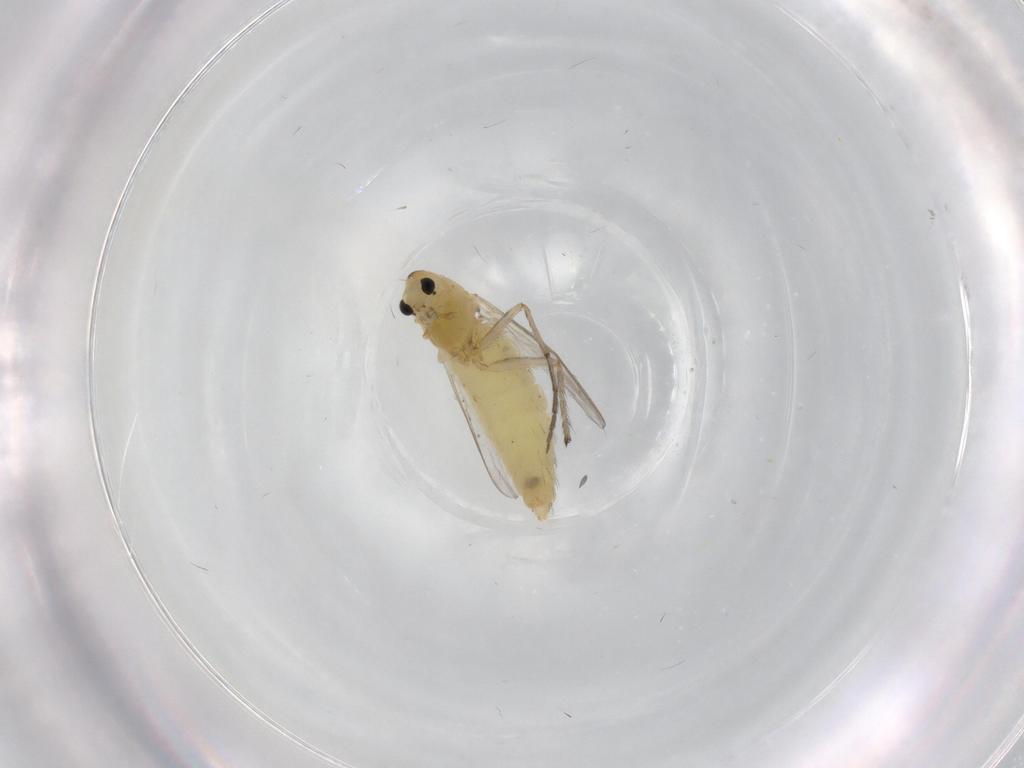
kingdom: Animalia
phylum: Arthropoda
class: Insecta
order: Diptera
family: Chironomidae
